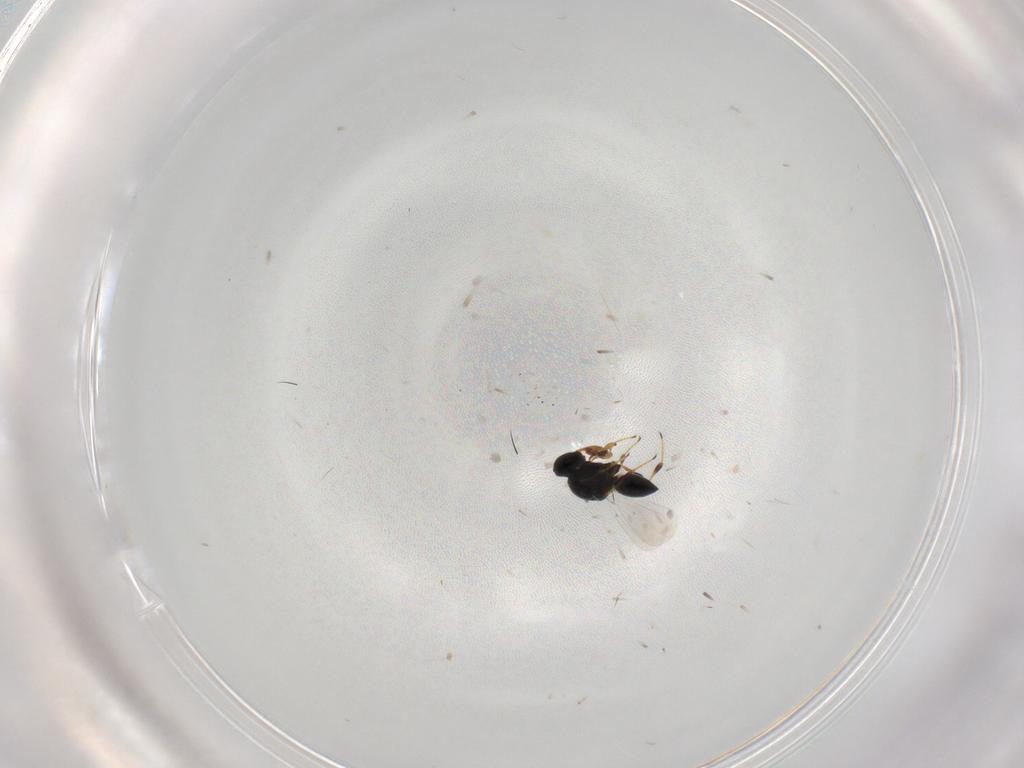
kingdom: Animalia
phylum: Arthropoda
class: Insecta
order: Hymenoptera
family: Platygastridae
